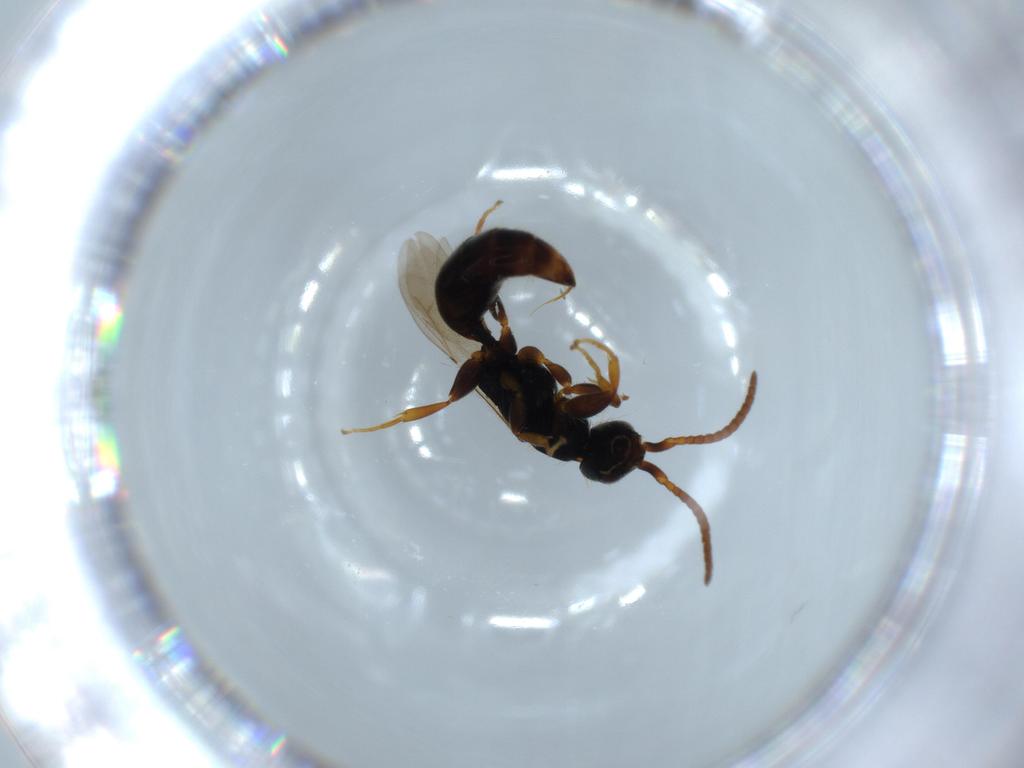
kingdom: Animalia
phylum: Arthropoda
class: Insecta
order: Hymenoptera
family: Bethylidae
